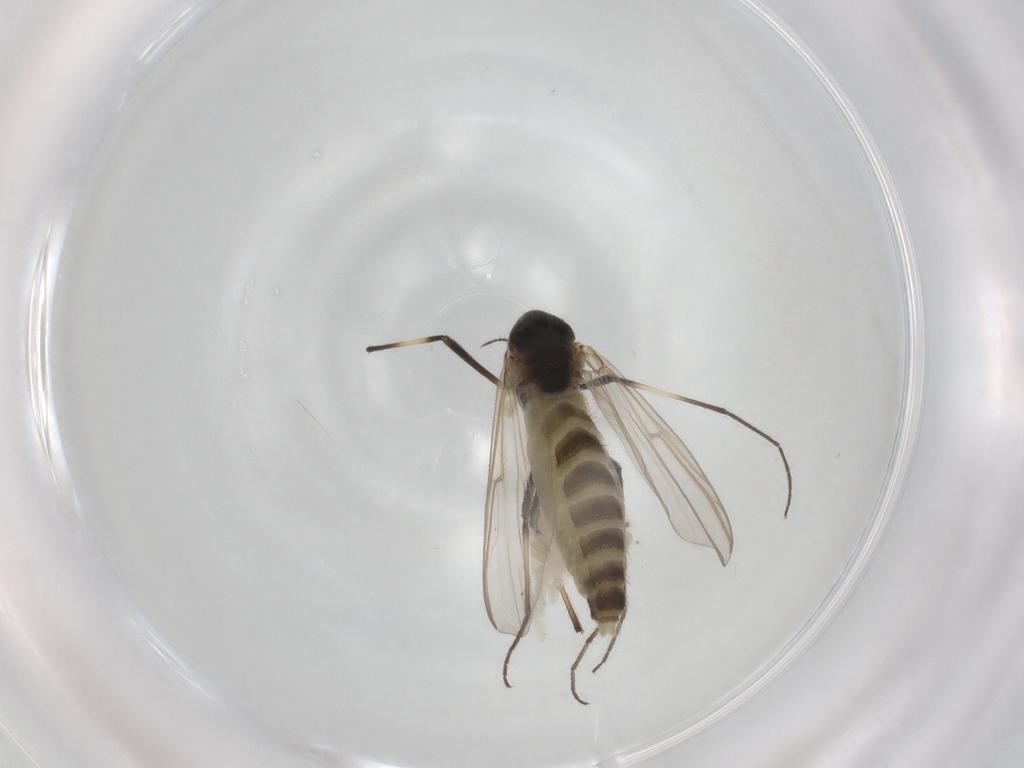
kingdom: Animalia
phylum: Arthropoda
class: Insecta
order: Diptera
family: Chironomidae
